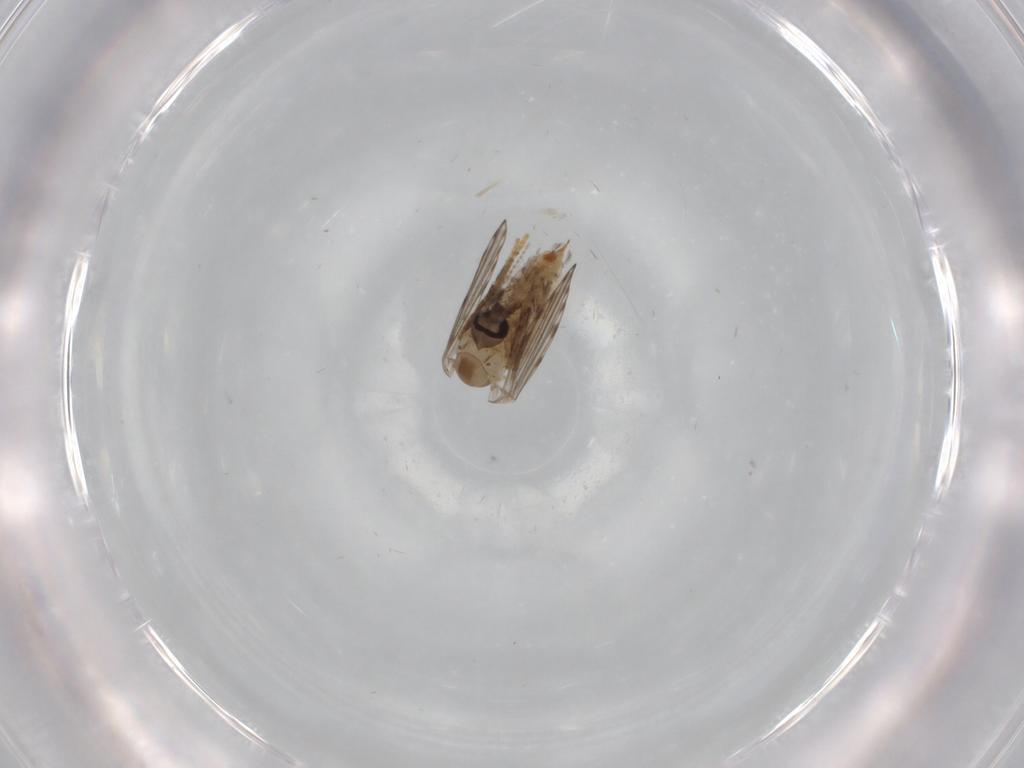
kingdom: Animalia
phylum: Arthropoda
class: Insecta
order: Diptera
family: Psychodidae
